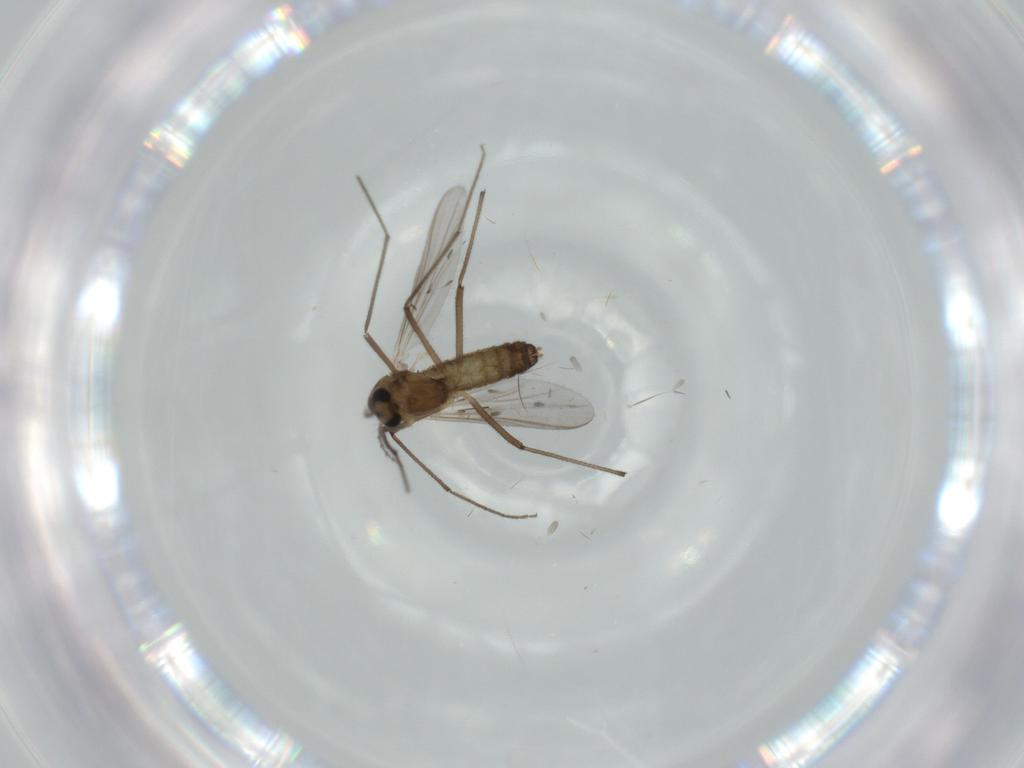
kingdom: Animalia
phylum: Arthropoda
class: Insecta
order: Diptera
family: Chironomidae
